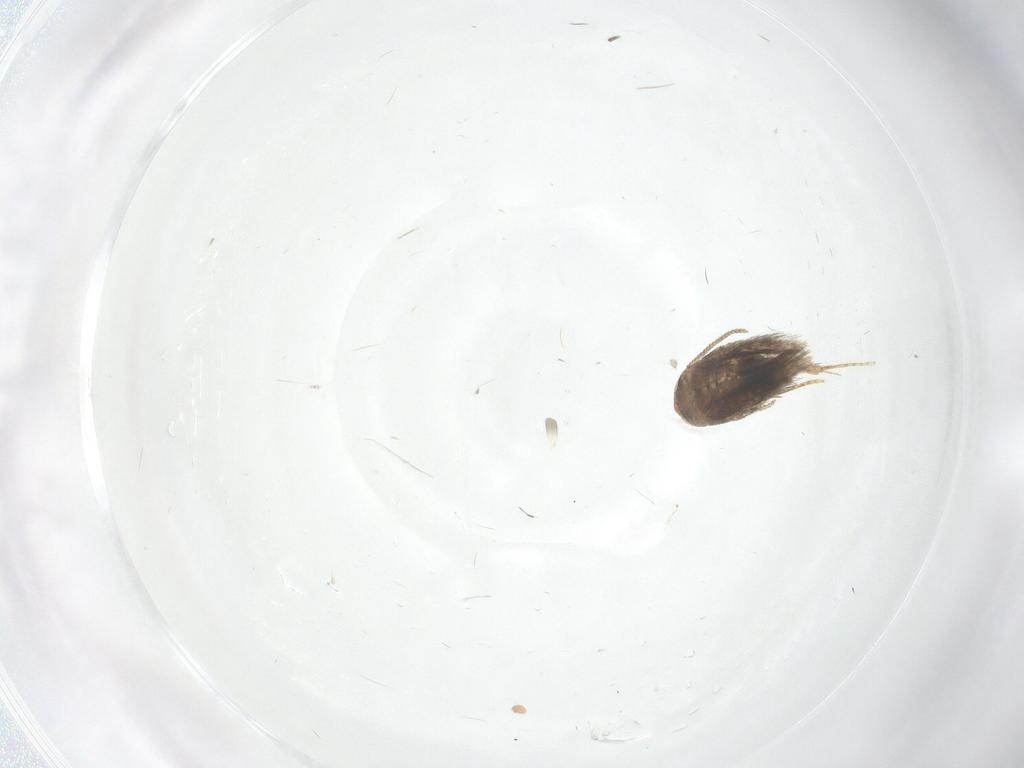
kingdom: Animalia
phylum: Arthropoda
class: Insecta
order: Lepidoptera
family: Nepticulidae
